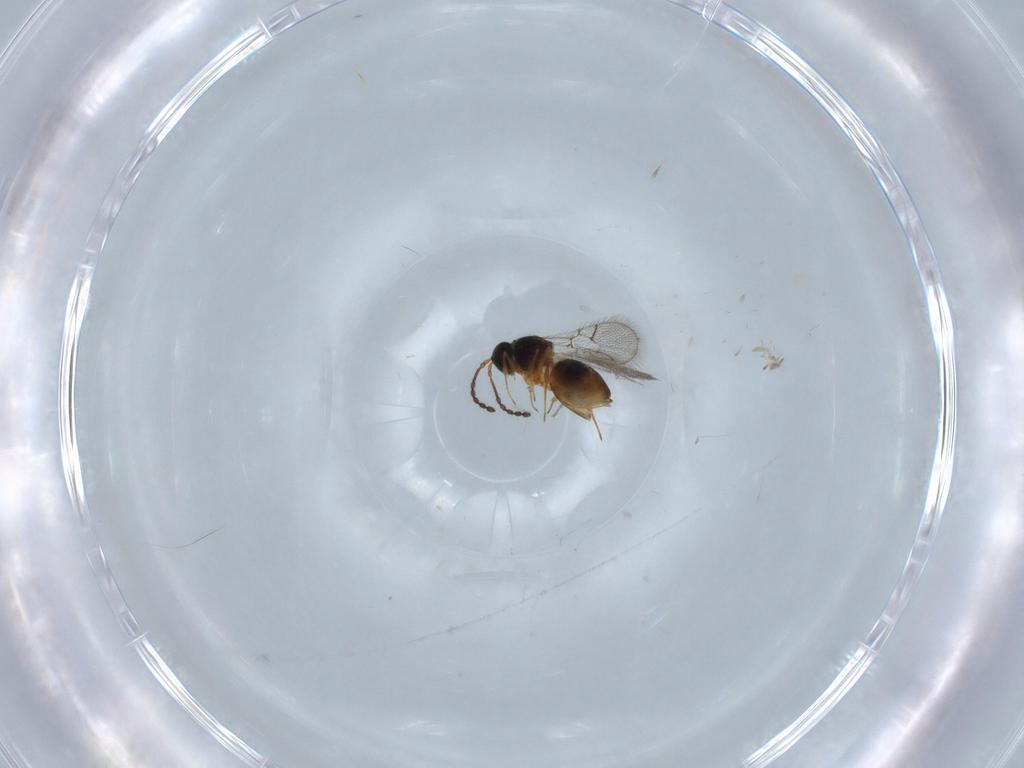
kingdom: Animalia
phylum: Arthropoda
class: Insecta
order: Hymenoptera
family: Figitidae
